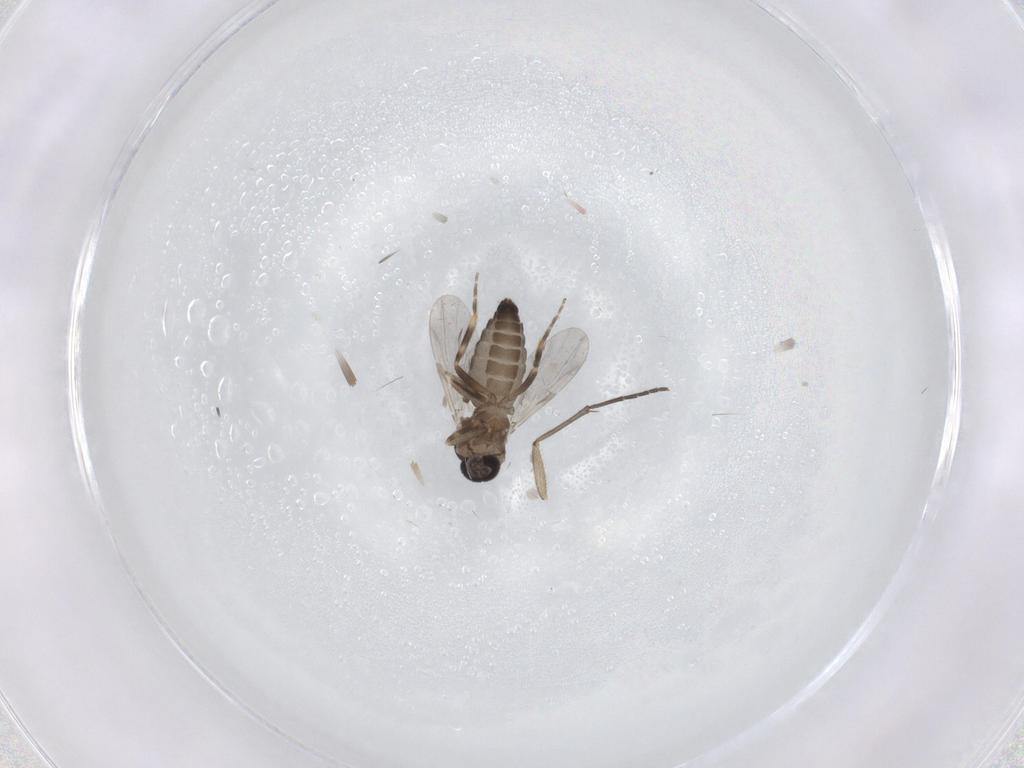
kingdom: Animalia
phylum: Arthropoda
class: Insecta
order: Diptera
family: Ceratopogonidae
